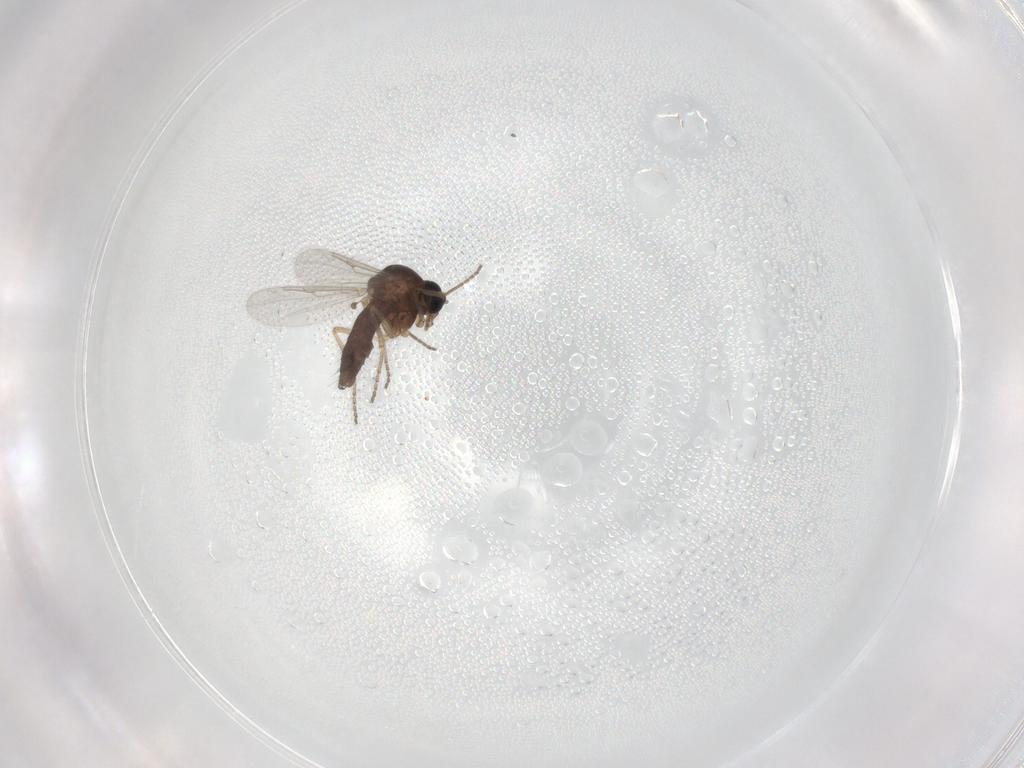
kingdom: Animalia
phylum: Arthropoda
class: Insecta
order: Diptera
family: Ceratopogonidae
